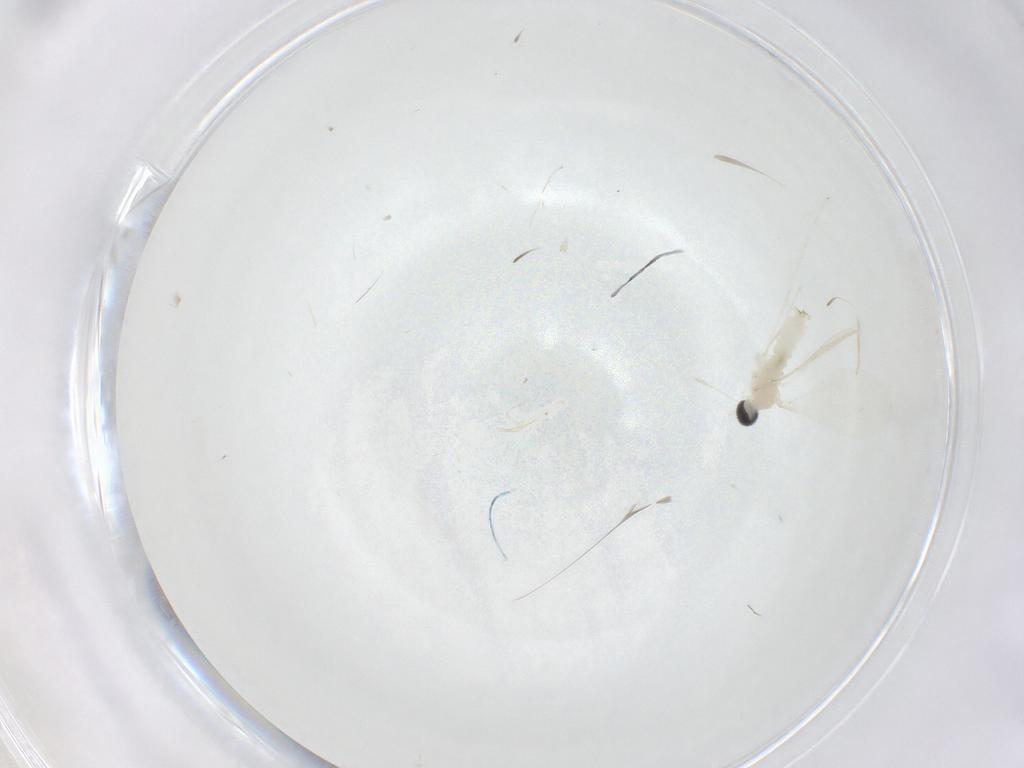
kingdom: Animalia
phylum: Arthropoda
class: Insecta
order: Diptera
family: Cecidomyiidae
